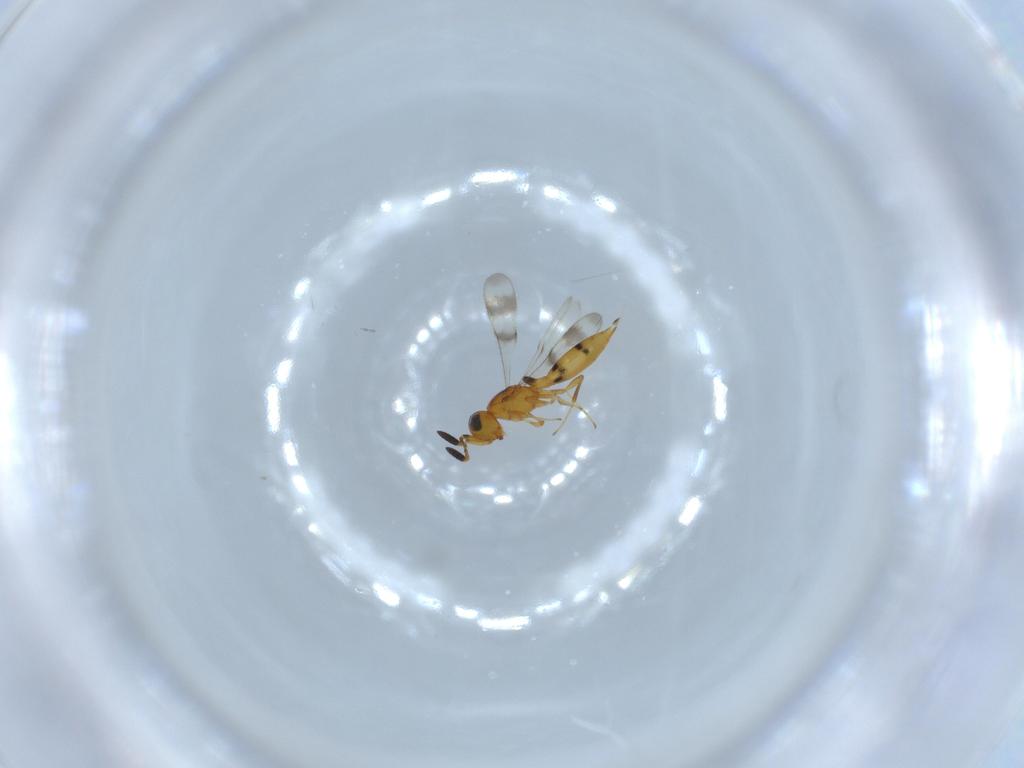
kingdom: Animalia
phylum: Arthropoda
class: Insecta
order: Hymenoptera
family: Scelionidae
